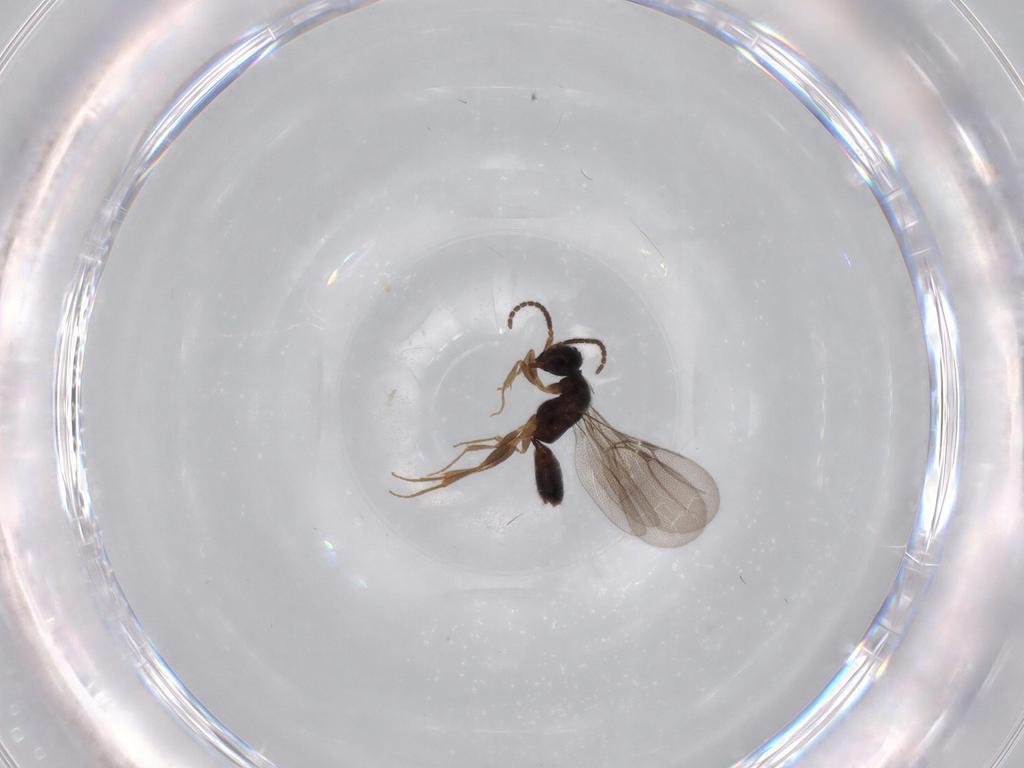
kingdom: Animalia
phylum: Arthropoda
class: Insecta
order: Hymenoptera
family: Bethylidae
